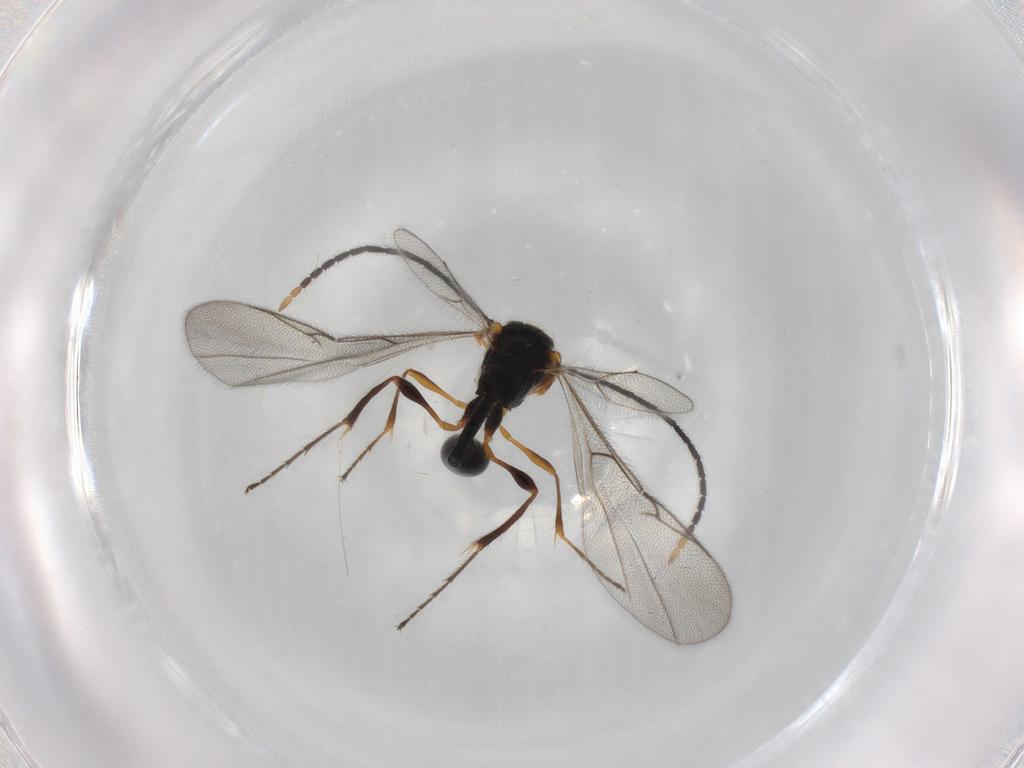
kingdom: Animalia
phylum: Arthropoda
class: Insecta
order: Hymenoptera
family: Diapriidae
